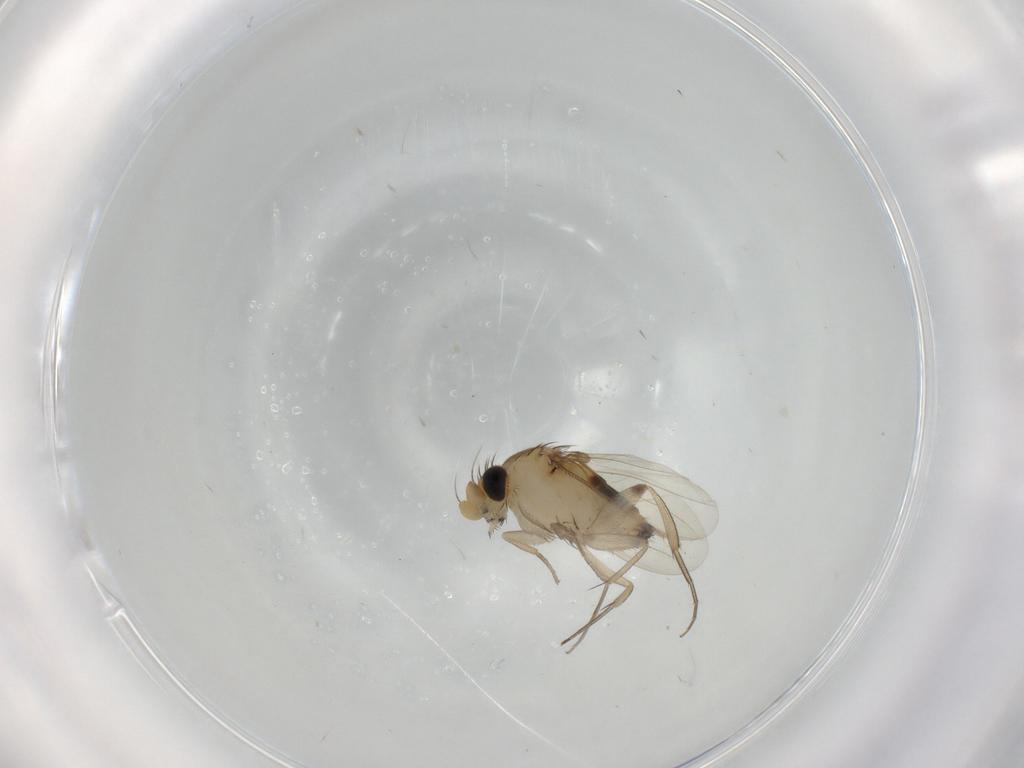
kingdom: Animalia
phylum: Arthropoda
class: Insecta
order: Diptera
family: Phoridae
